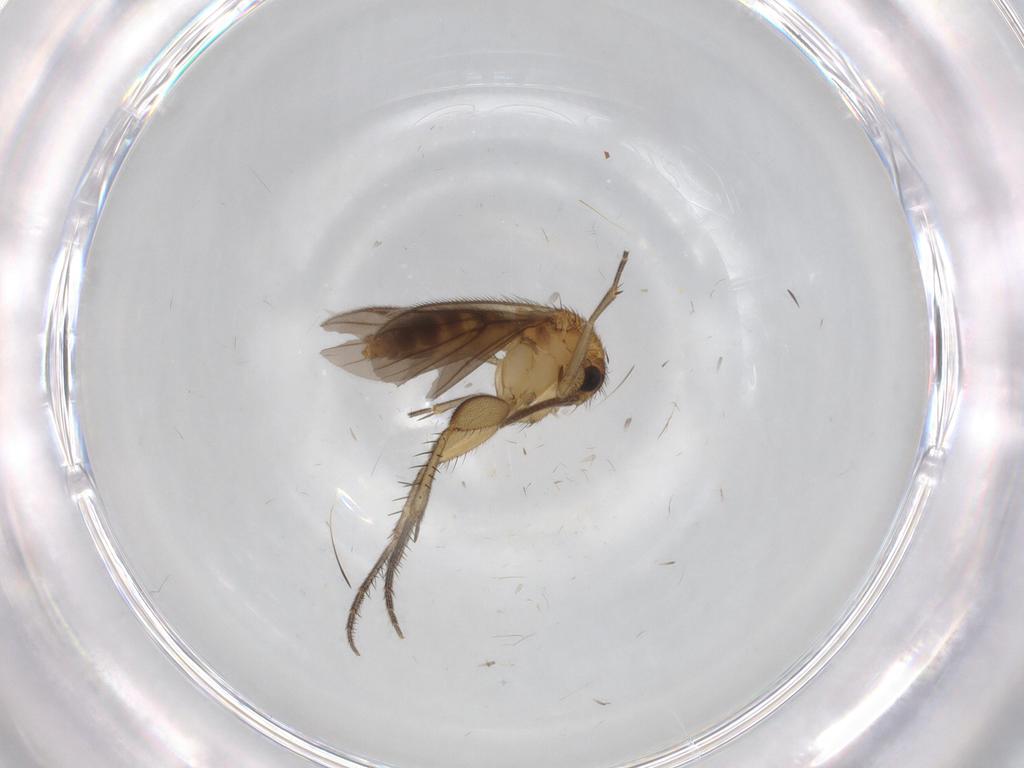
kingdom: Animalia
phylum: Arthropoda
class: Insecta
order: Diptera
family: Mycetophilidae
